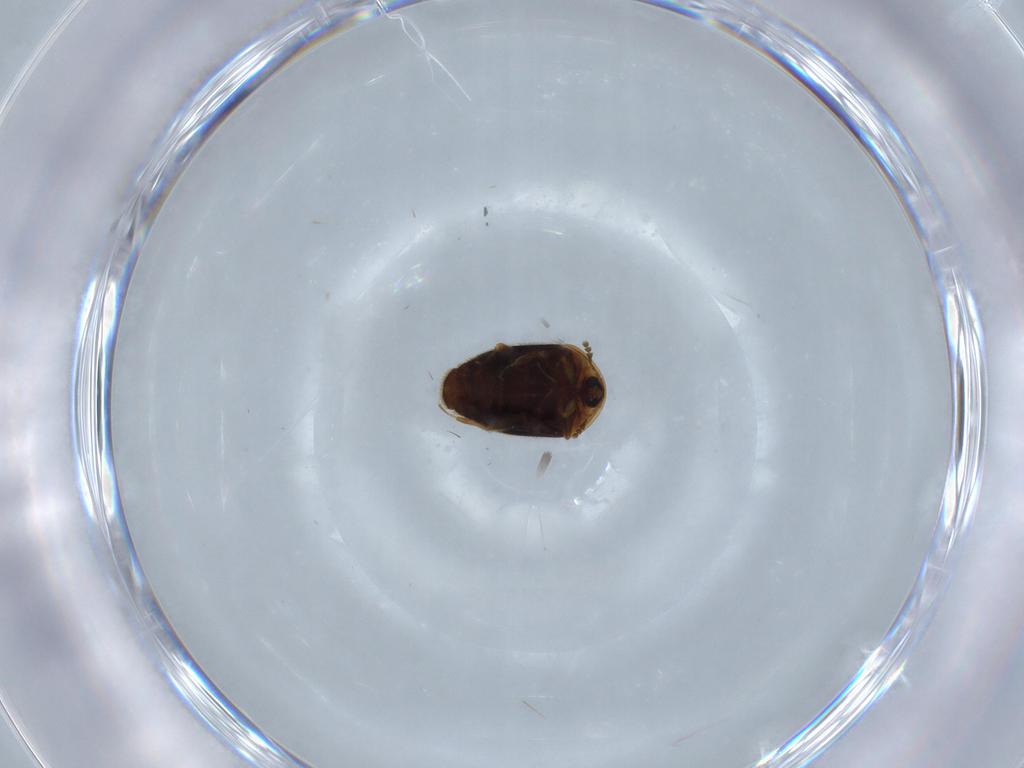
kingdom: Animalia
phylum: Arthropoda
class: Insecta
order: Coleoptera
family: Corylophidae
